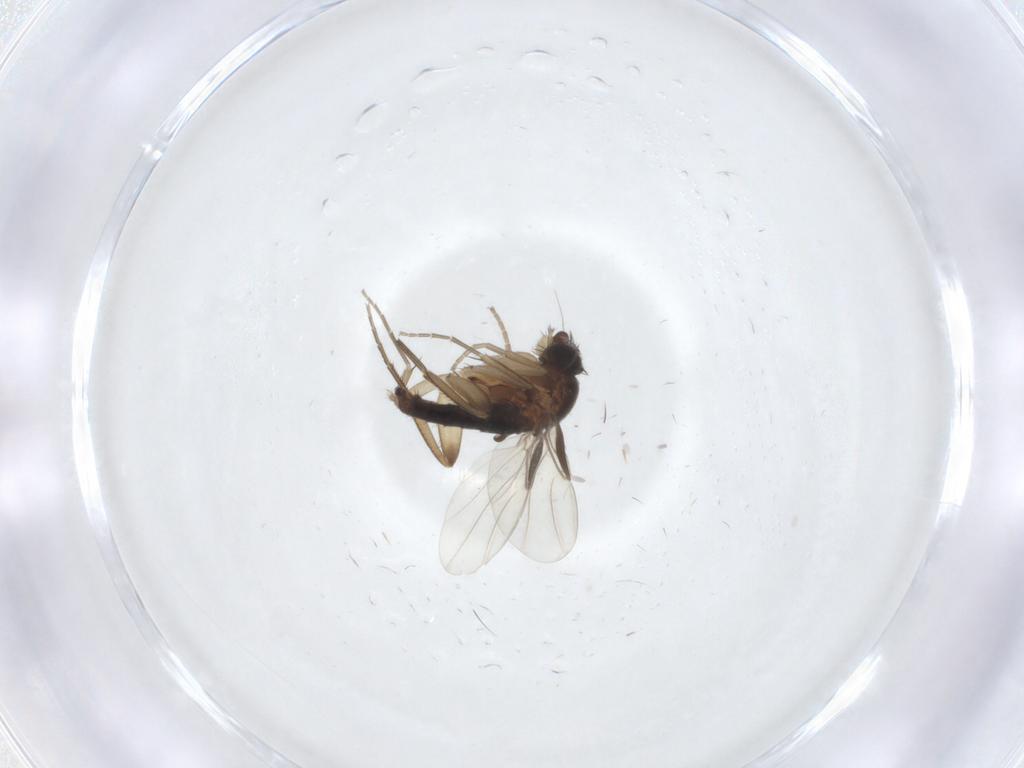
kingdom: Animalia
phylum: Arthropoda
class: Insecta
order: Diptera
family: Phoridae
